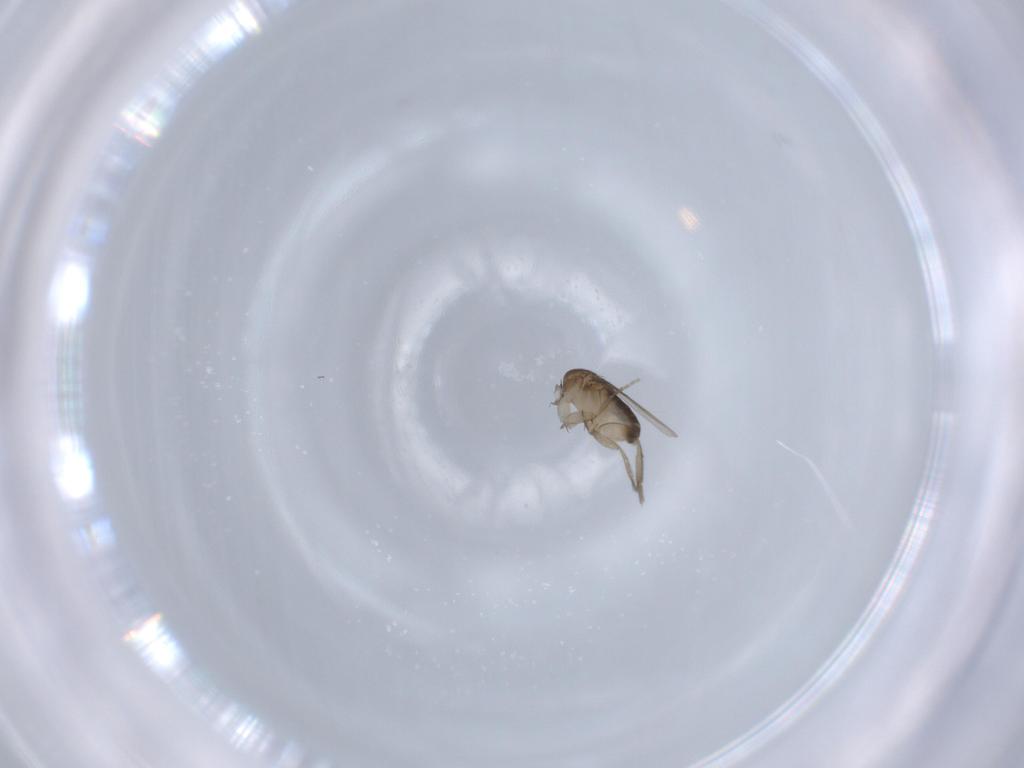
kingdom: Animalia
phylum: Arthropoda
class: Insecta
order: Diptera
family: Phoridae
